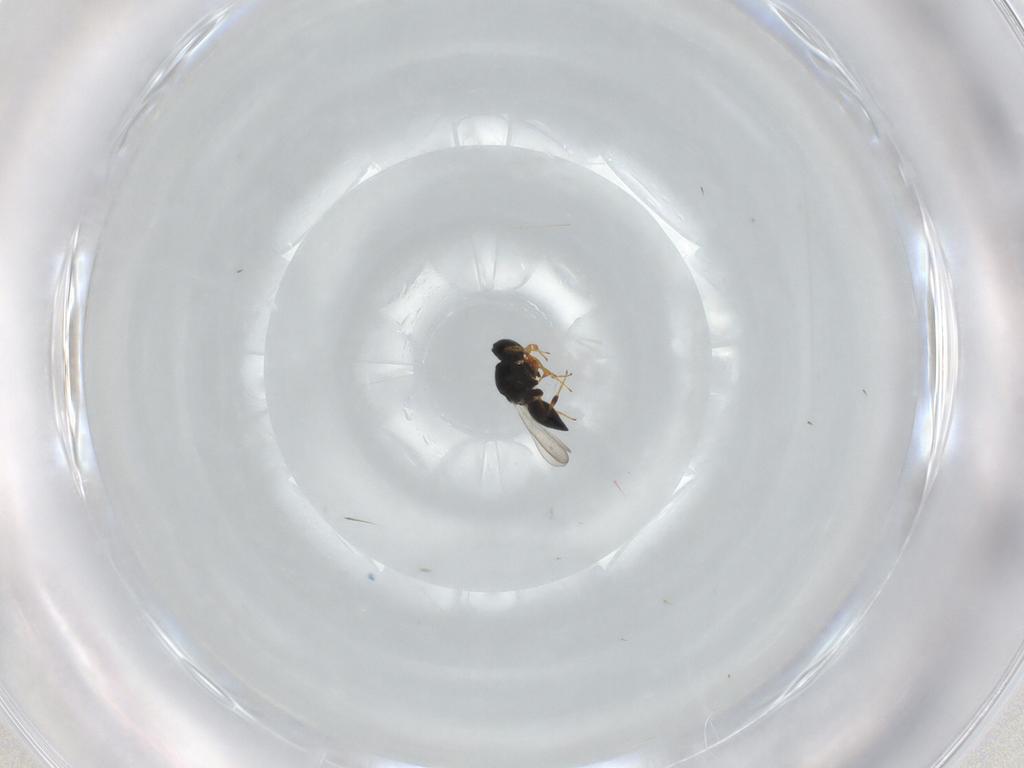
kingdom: Animalia
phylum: Arthropoda
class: Insecta
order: Hymenoptera
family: Platygastridae
